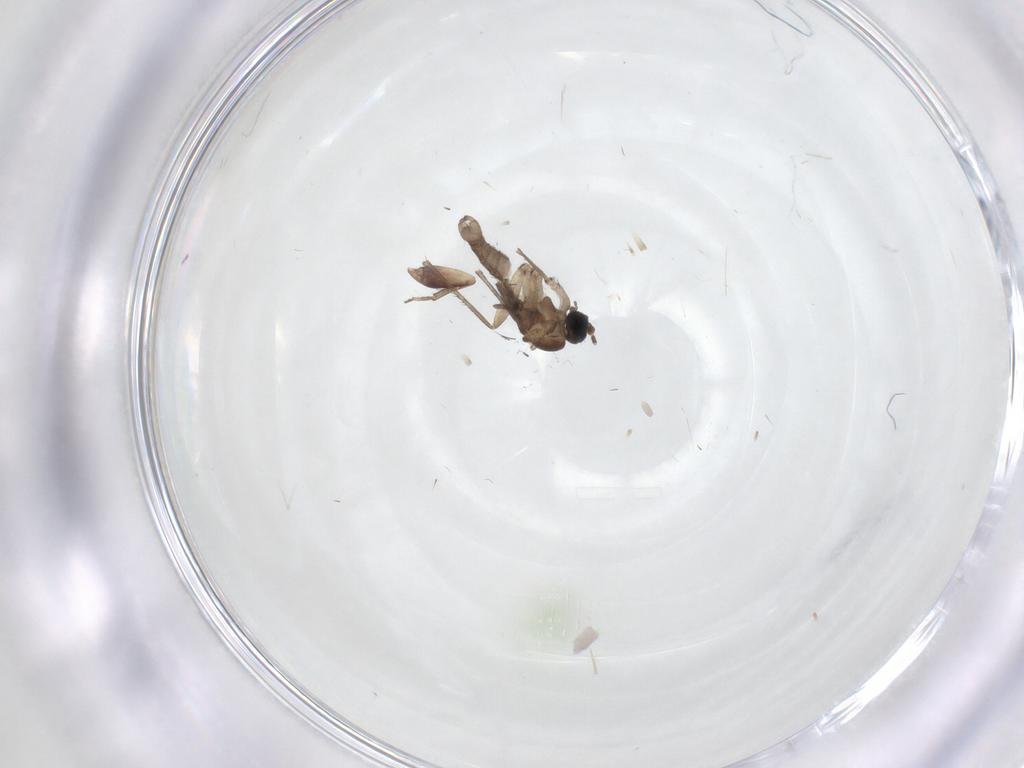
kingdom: Animalia
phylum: Arthropoda
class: Insecta
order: Diptera
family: Sciaridae
